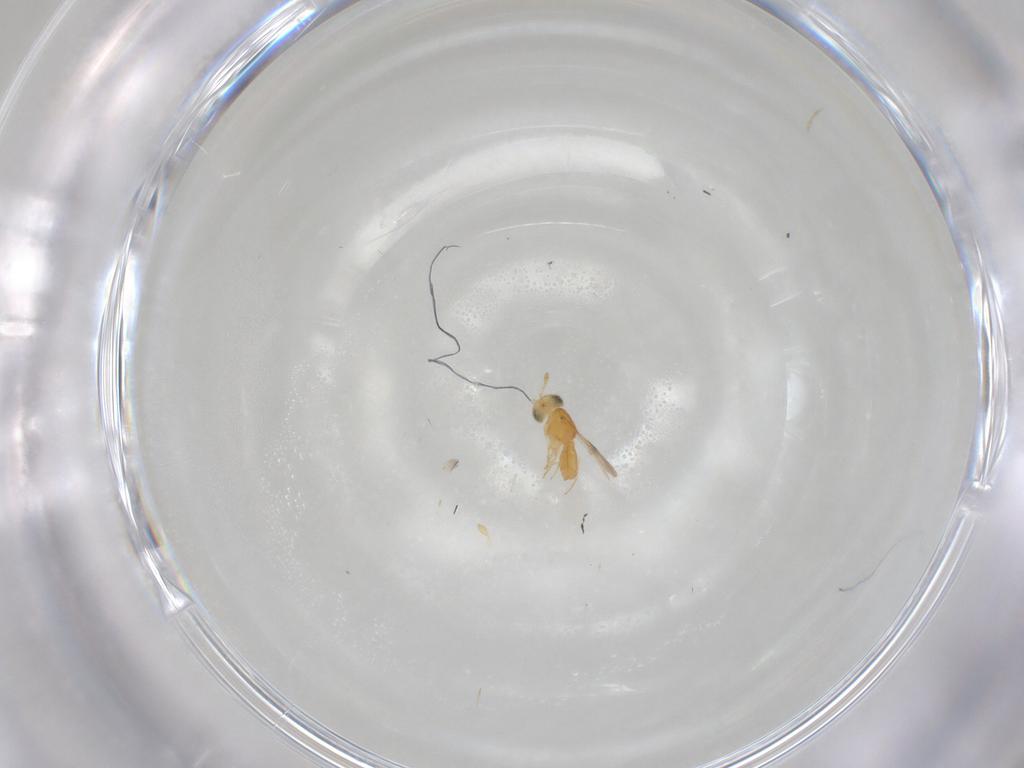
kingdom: Animalia
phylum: Arthropoda
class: Insecta
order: Hymenoptera
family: Scelionidae
